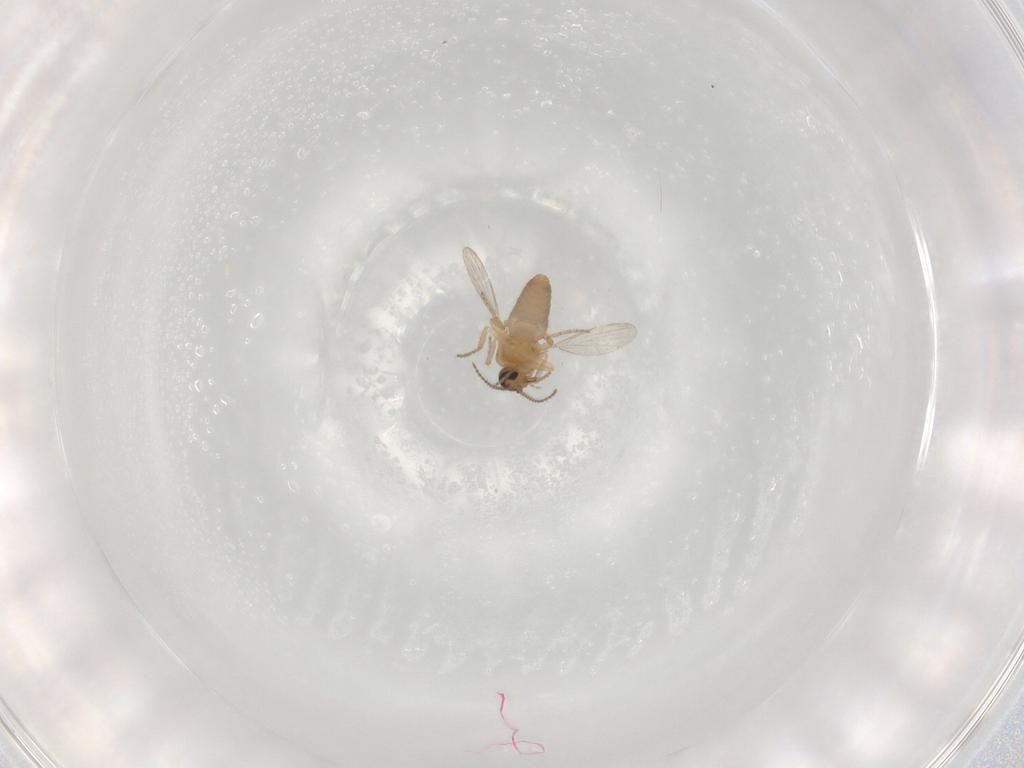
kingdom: Animalia
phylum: Arthropoda
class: Insecta
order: Diptera
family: Ceratopogonidae
